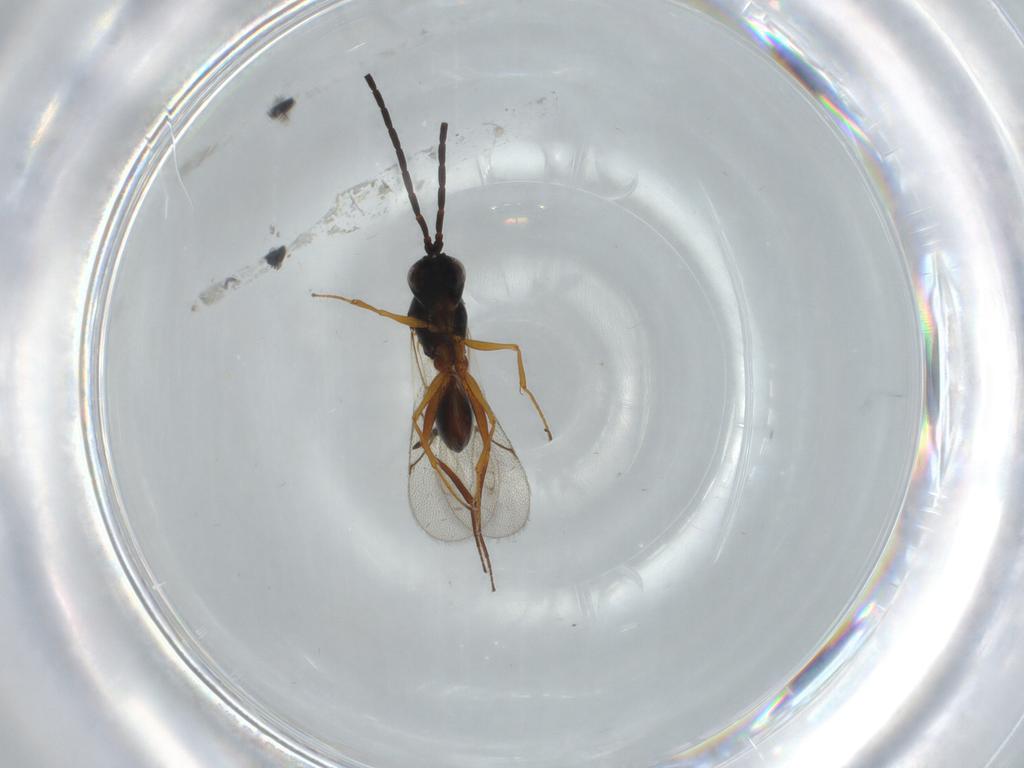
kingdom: Animalia
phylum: Arthropoda
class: Insecta
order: Hymenoptera
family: Figitidae
